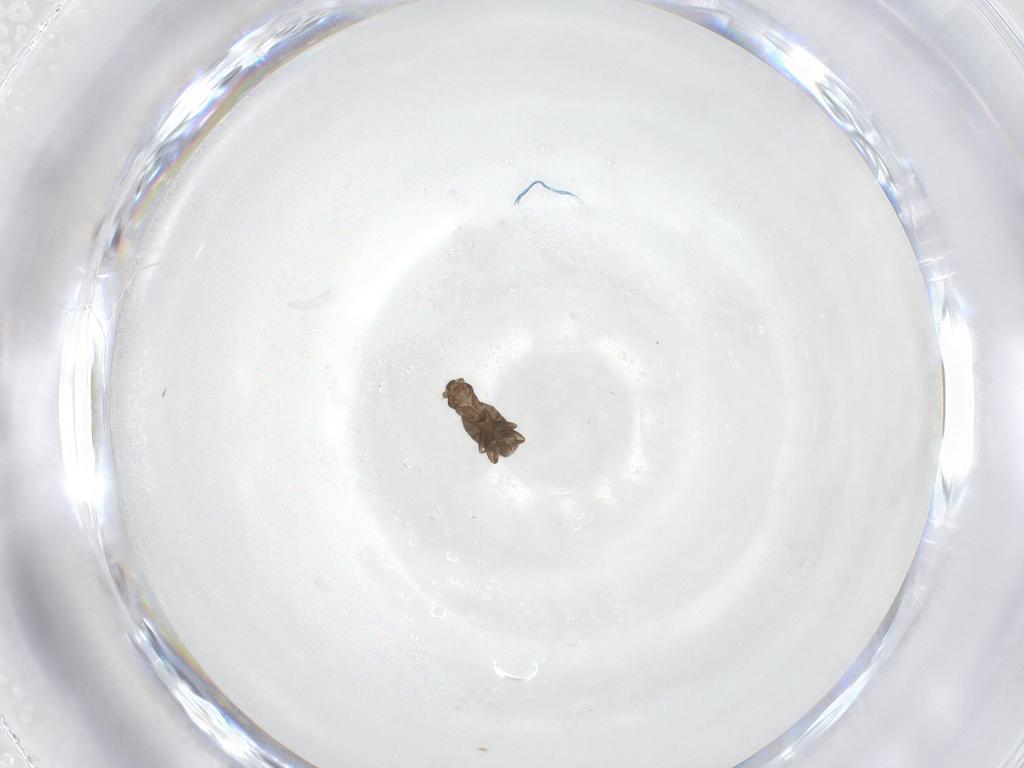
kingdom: Animalia
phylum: Arthropoda
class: Insecta
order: Diptera
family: Phoridae
